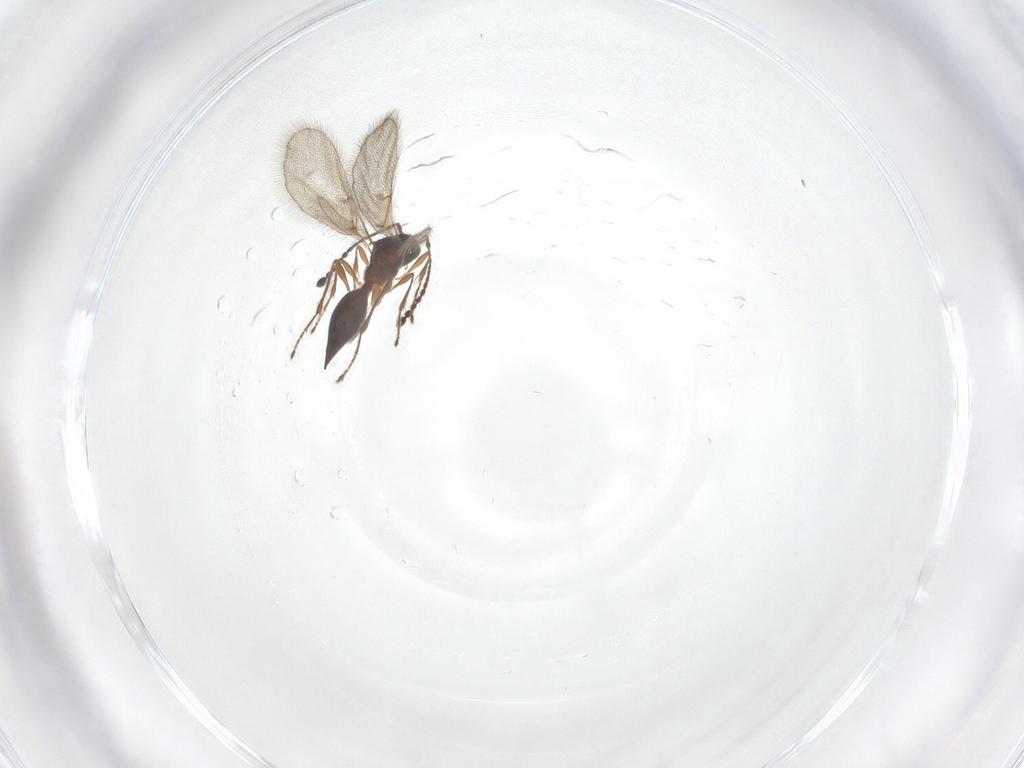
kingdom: Animalia
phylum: Arthropoda
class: Insecta
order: Hymenoptera
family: Diapriidae
